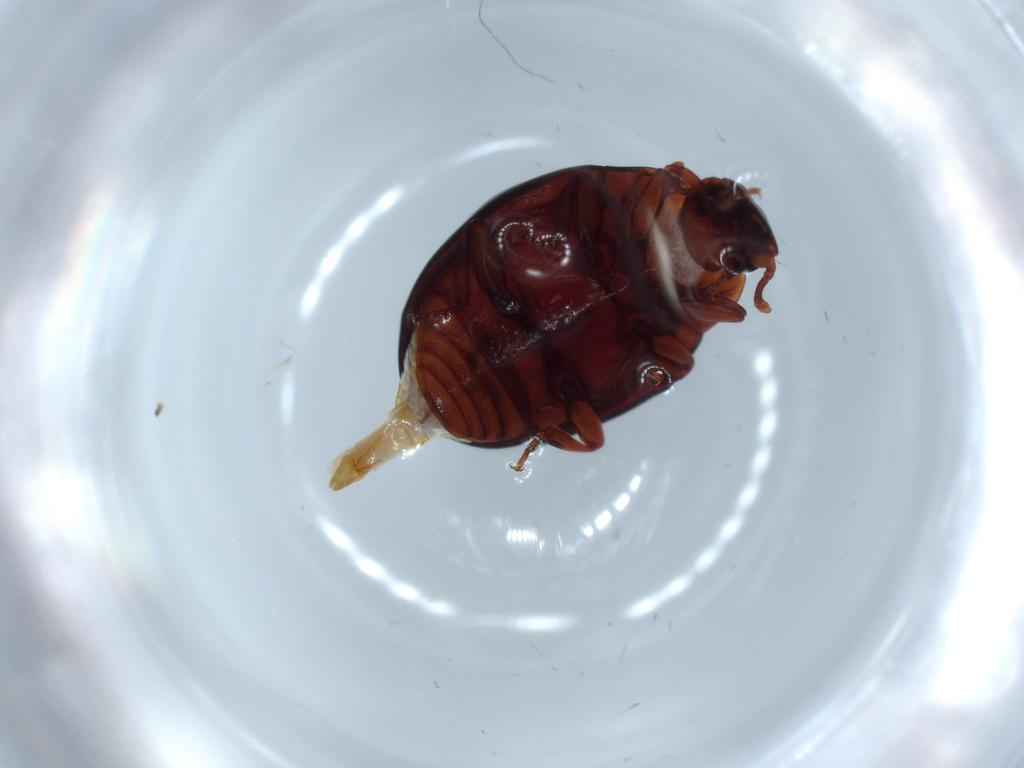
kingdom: Animalia
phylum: Arthropoda
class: Insecta
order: Coleoptera
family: Zopheridae
